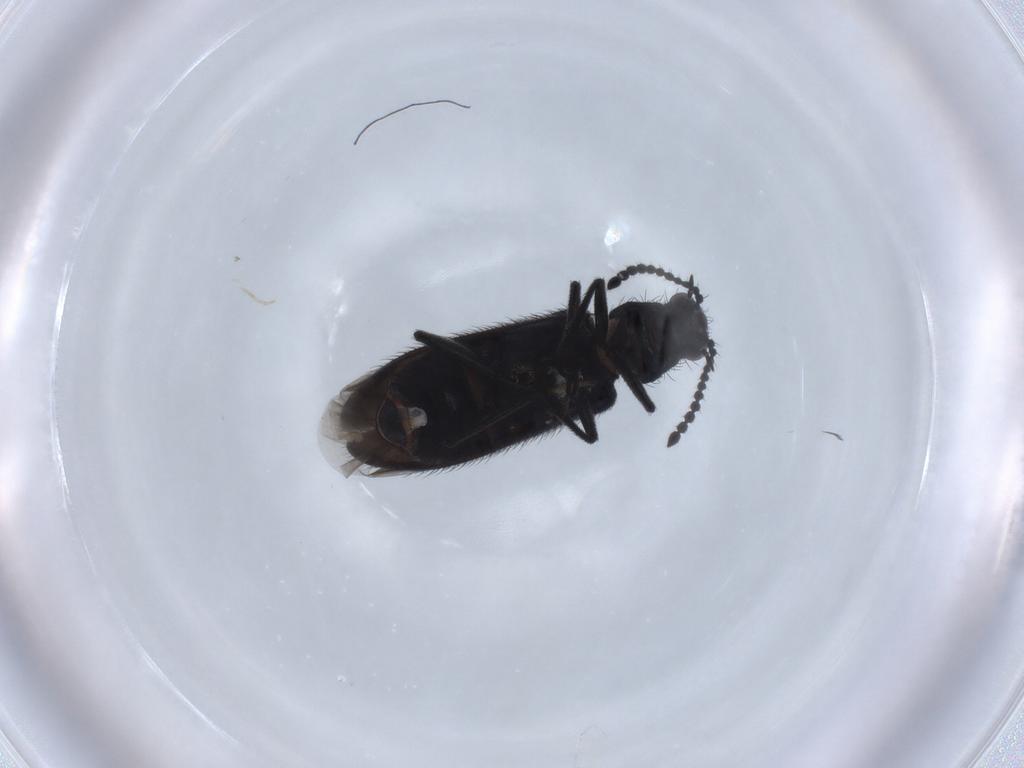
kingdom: Animalia
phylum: Arthropoda
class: Insecta
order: Coleoptera
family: Melyridae
